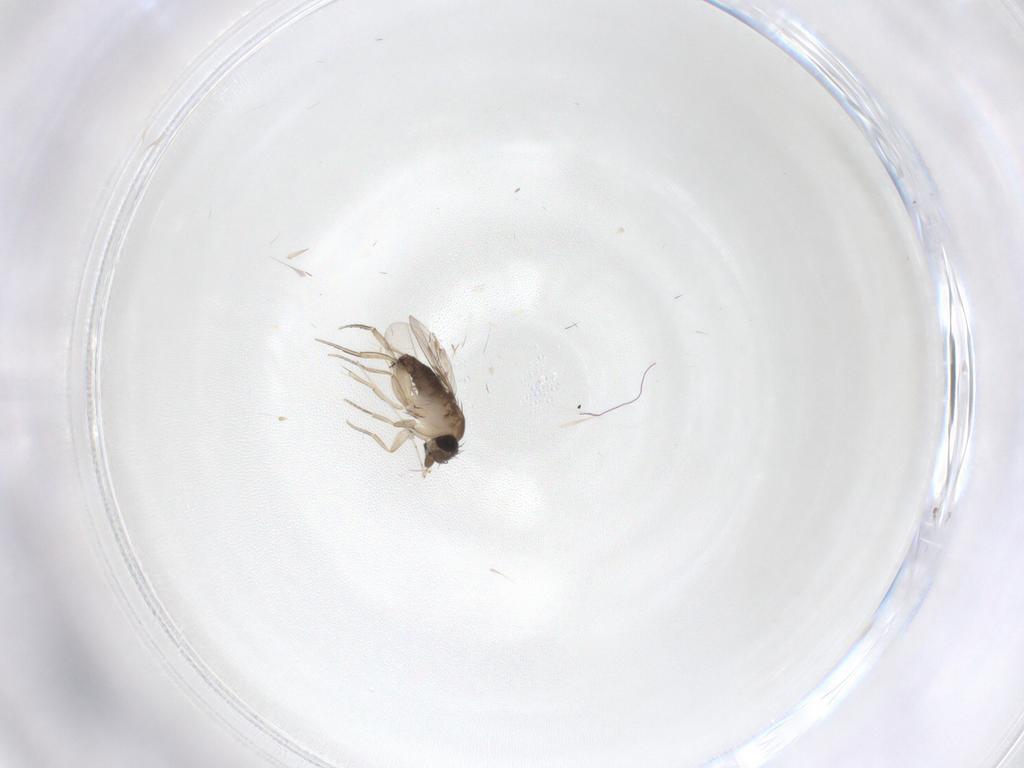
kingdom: Animalia
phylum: Arthropoda
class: Insecta
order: Diptera
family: Phoridae
